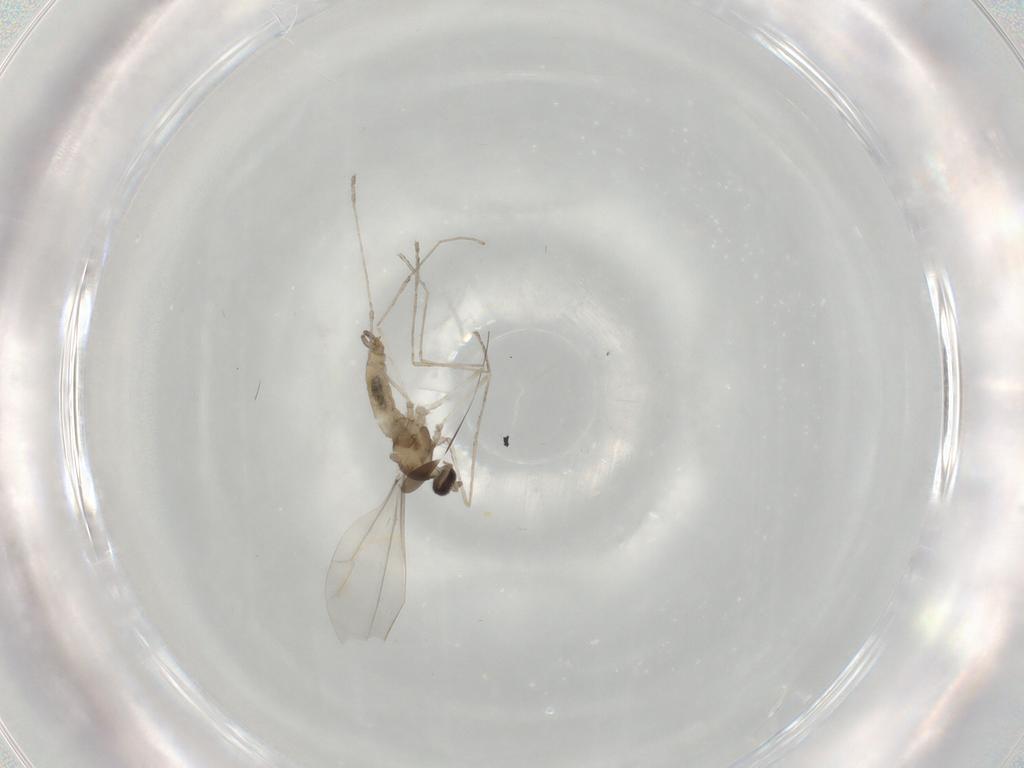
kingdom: Animalia
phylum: Arthropoda
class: Insecta
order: Diptera
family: Cecidomyiidae
